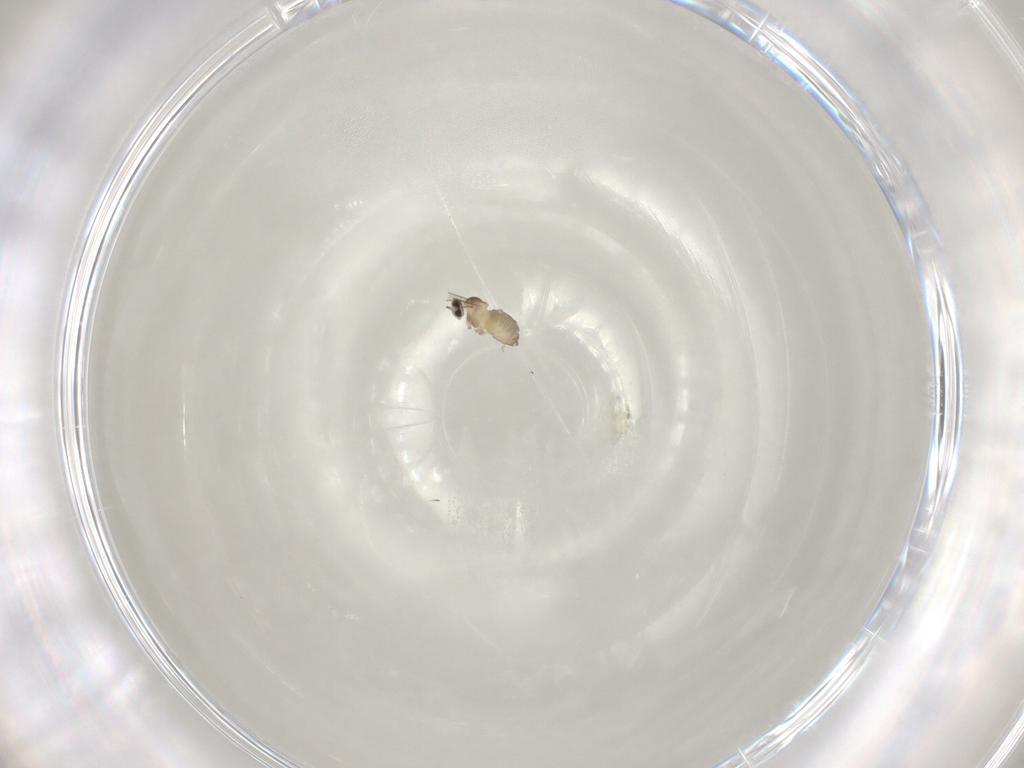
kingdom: Animalia
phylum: Arthropoda
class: Insecta
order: Diptera
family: Cecidomyiidae
